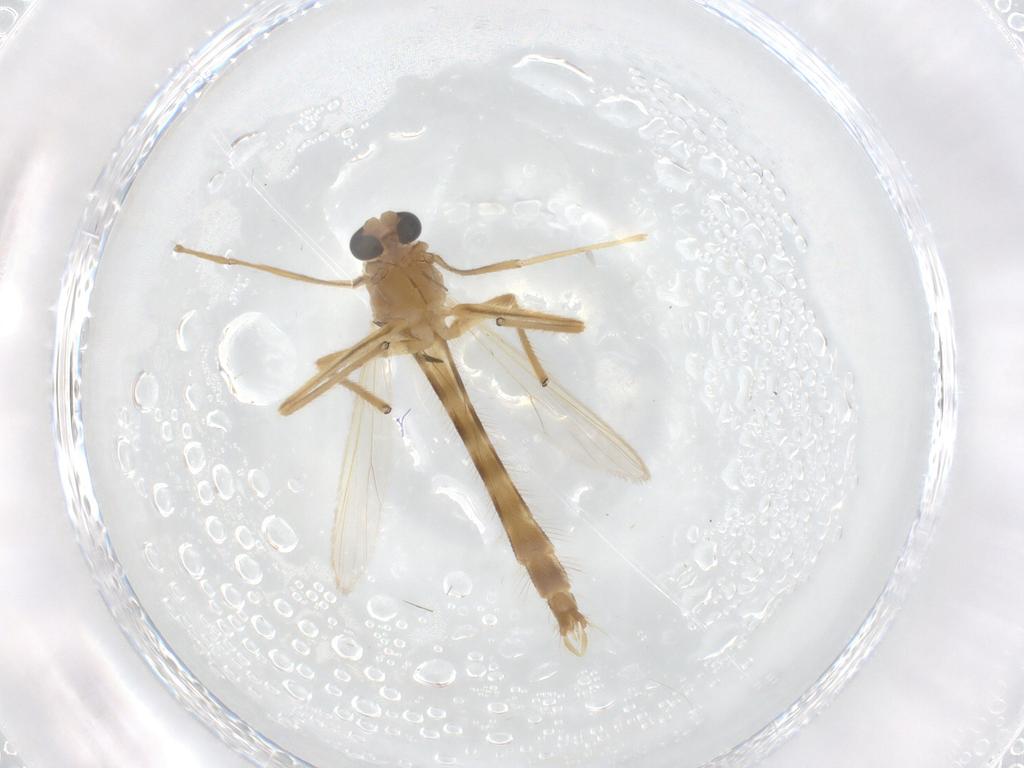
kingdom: Animalia
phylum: Arthropoda
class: Insecta
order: Diptera
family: Chironomidae
